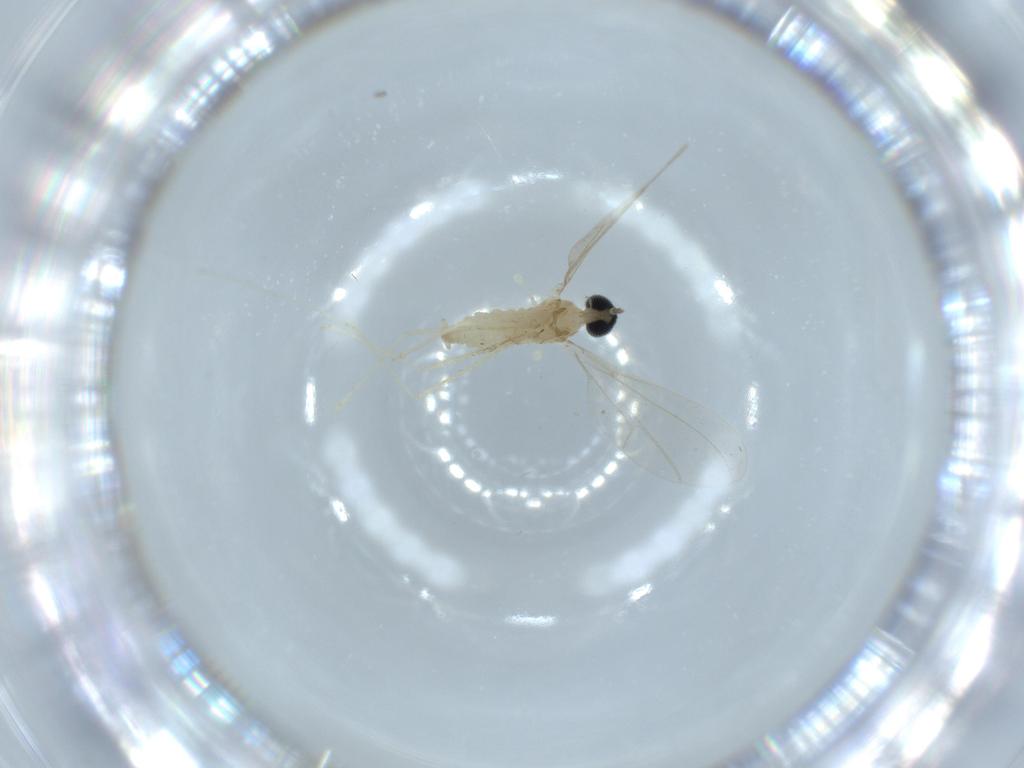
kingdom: Animalia
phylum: Arthropoda
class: Insecta
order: Diptera
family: Cecidomyiidae
